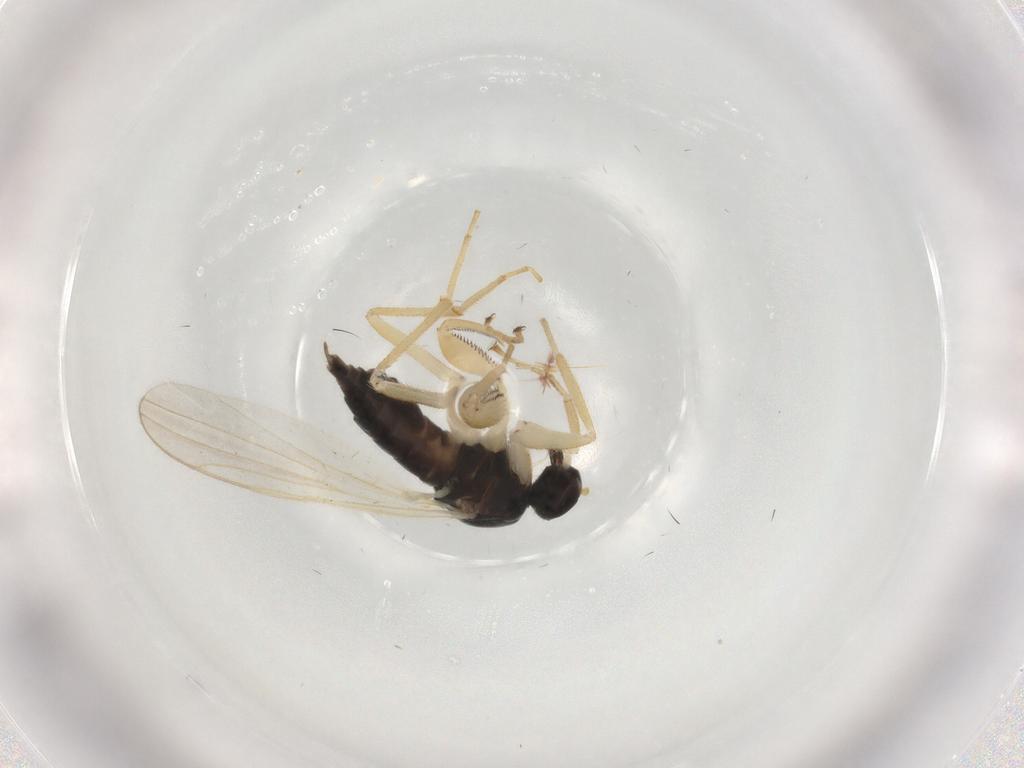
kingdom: Animalia
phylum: Arthropoda
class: Insecta
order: Diptera
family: Hybotidae
